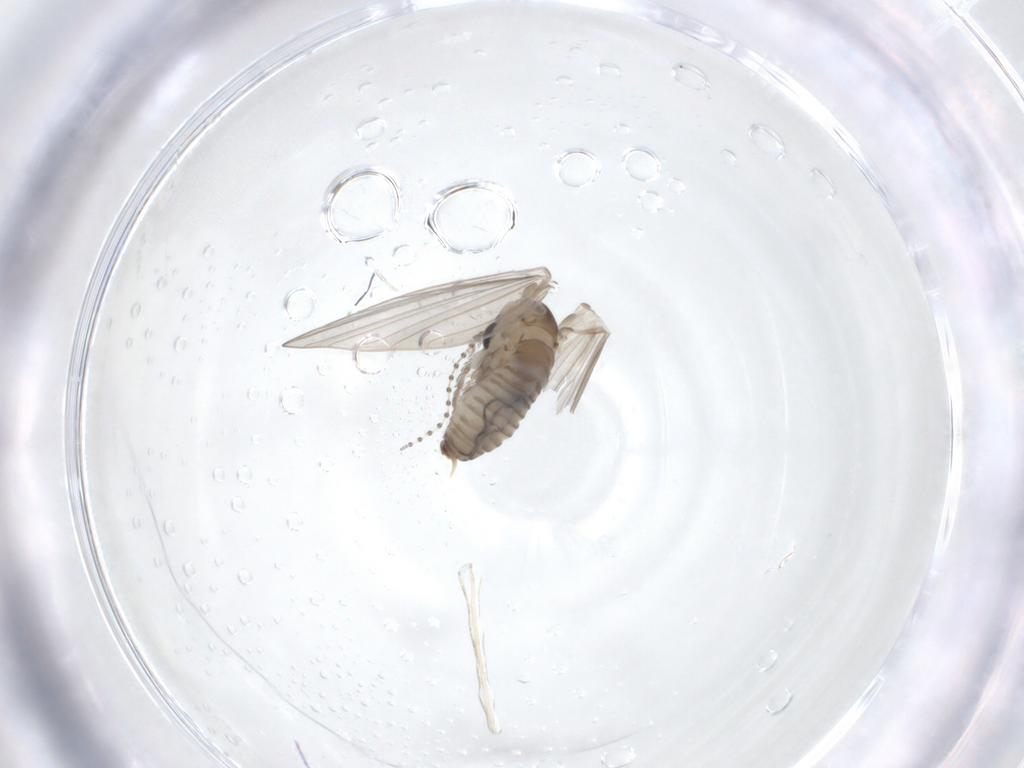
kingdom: Animalia
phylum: Arthropoda
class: Insecta
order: Diptera
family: Psychodidae
